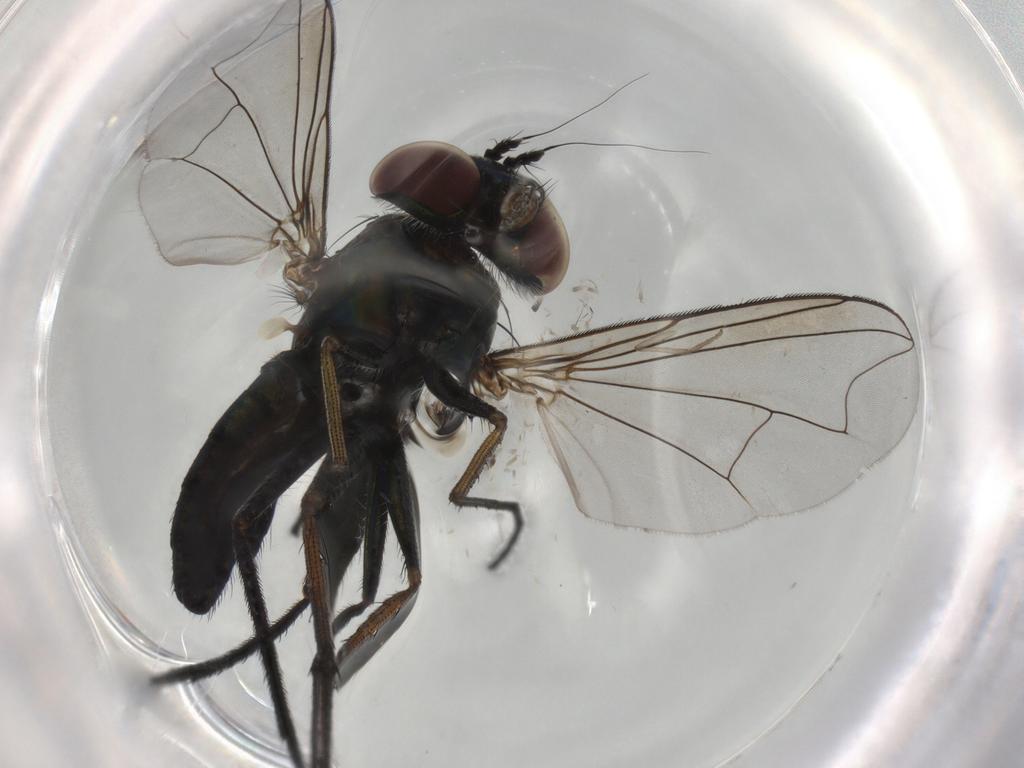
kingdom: Animalia
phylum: Arthropoda
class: Insecta
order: Diptera
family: Dolichopodidae
